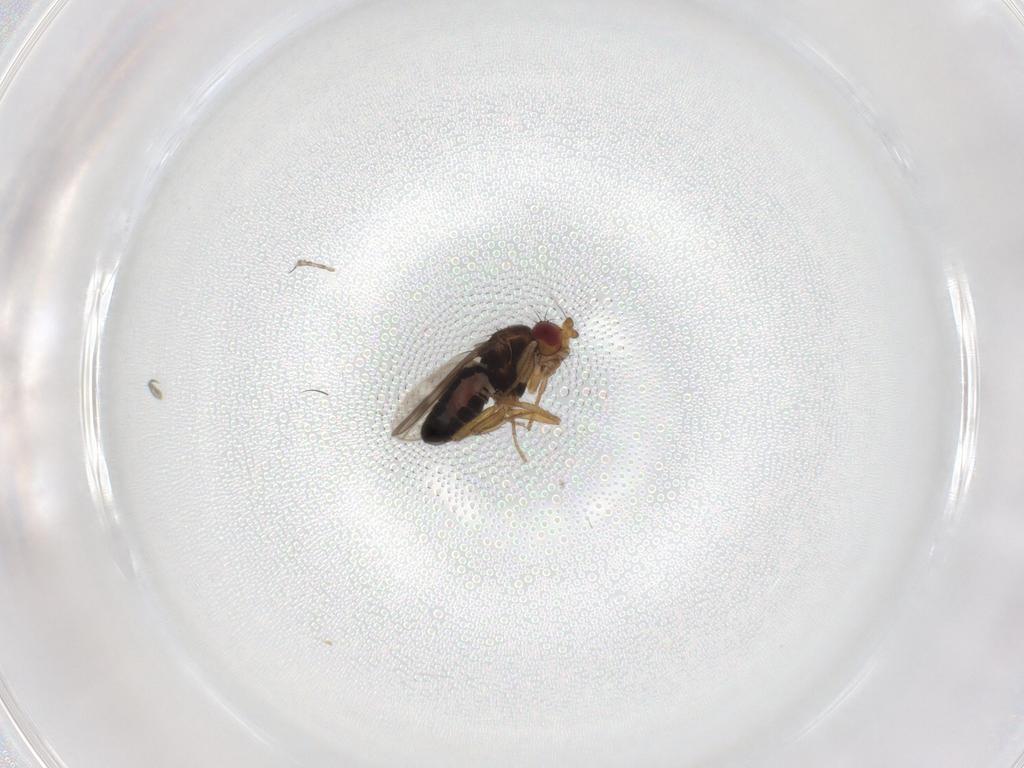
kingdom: Animalia
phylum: Arthropoda
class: Insecta
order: Diptera
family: Sphaeroceridae
